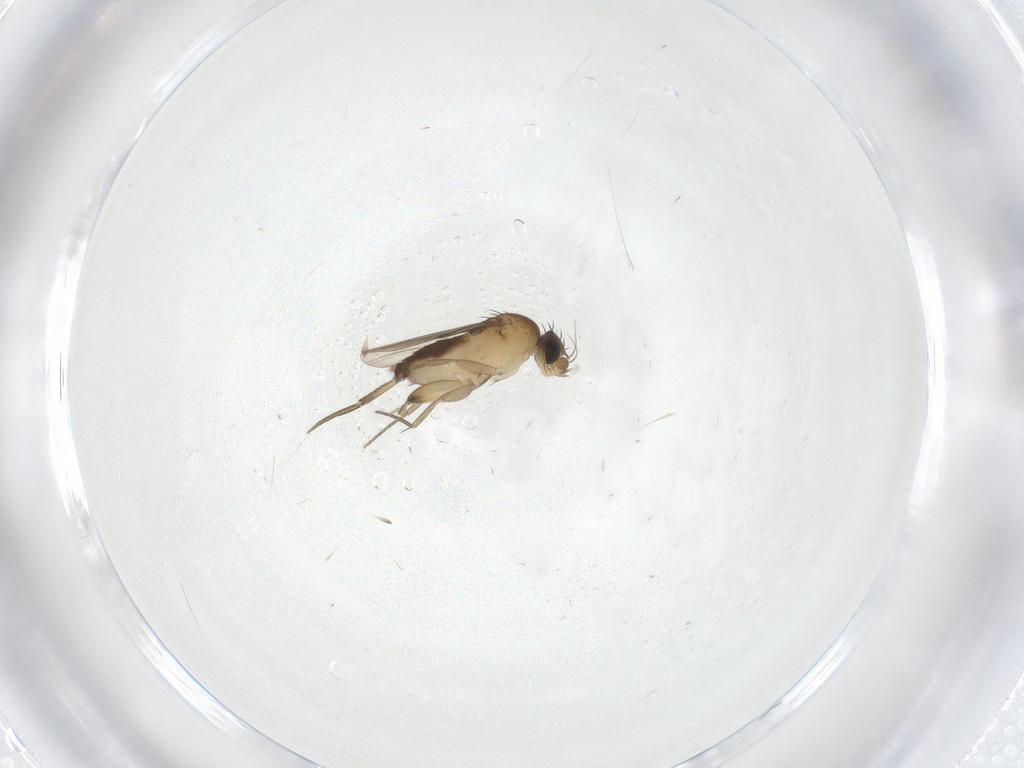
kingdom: Animalia
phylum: Arthropoda
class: Insecta
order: Diptera
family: Phoridae
